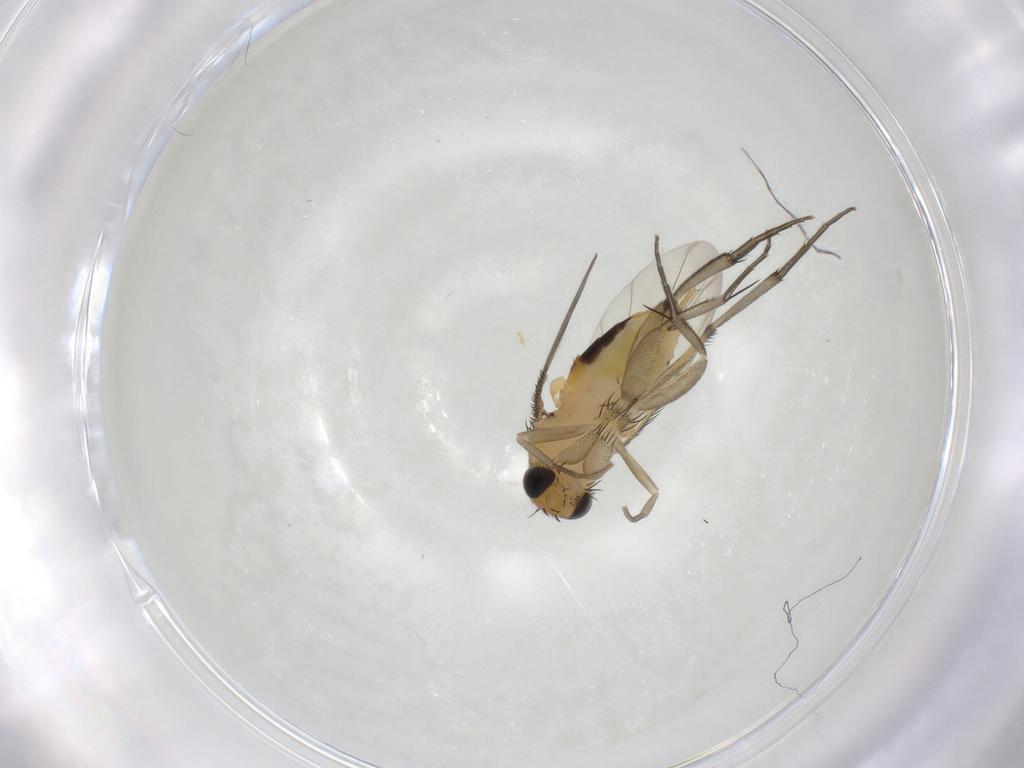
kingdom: Animalia
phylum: Arthropoda
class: Insecta
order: Diptera
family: Phoridae
